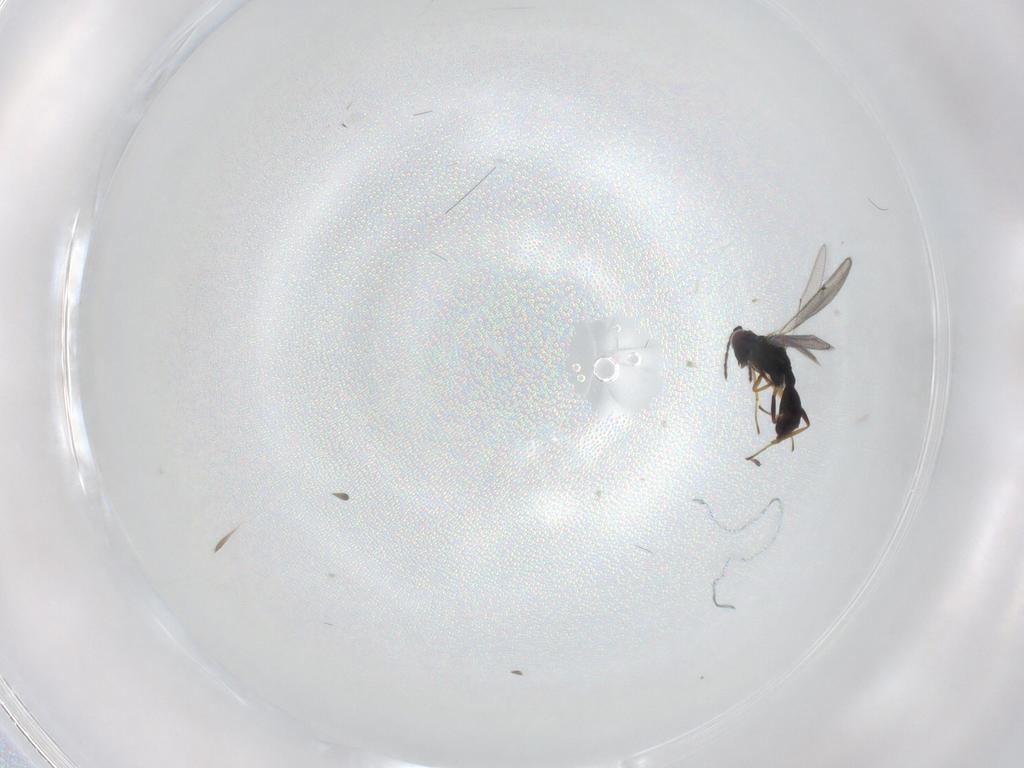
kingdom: Animalia
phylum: Arthropoda
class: Insecta
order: Hymenoptera
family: Eulophidae
